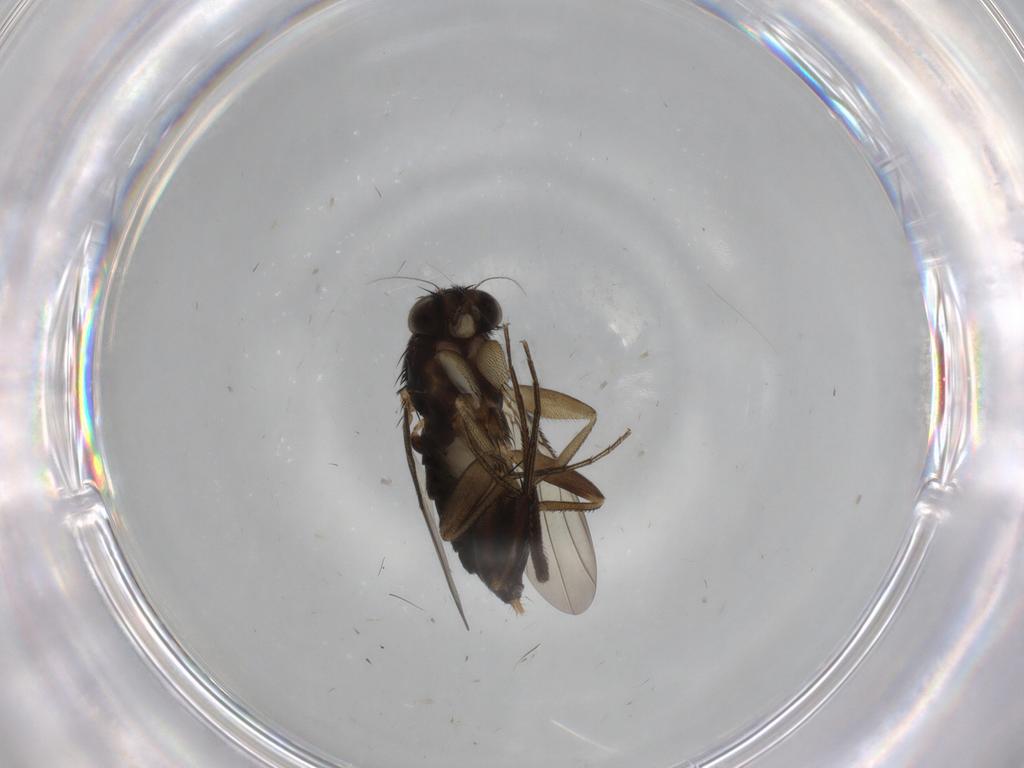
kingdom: Animalia
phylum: Arthropoda
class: Insecta
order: Diptera
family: Phoridae
